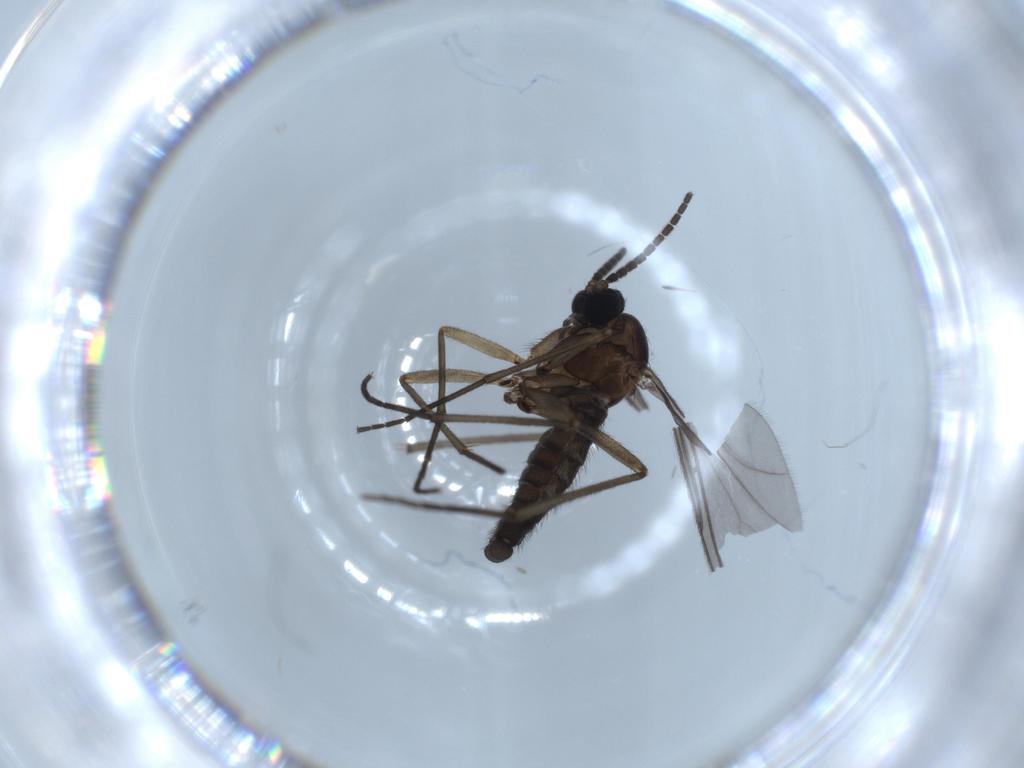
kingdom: Animalia
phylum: Arthropoda
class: Insecta
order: Diptera
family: Sciaridae
